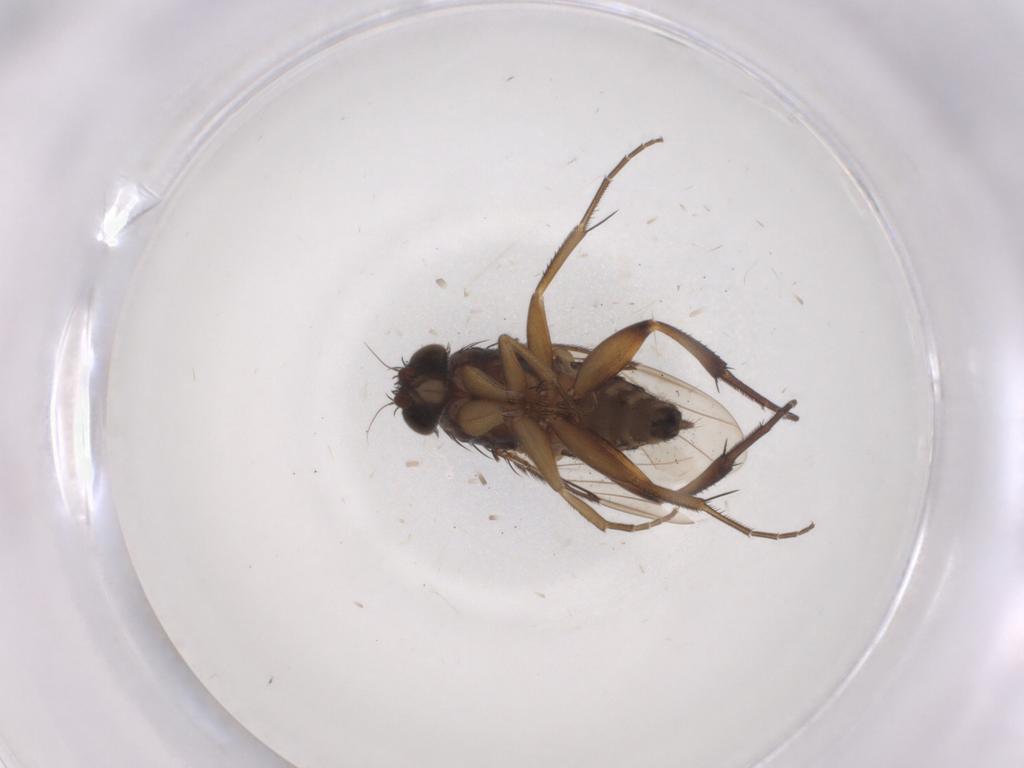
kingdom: Animalia
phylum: Arthropoda
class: Insecta
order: Diptera
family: Phoridae
